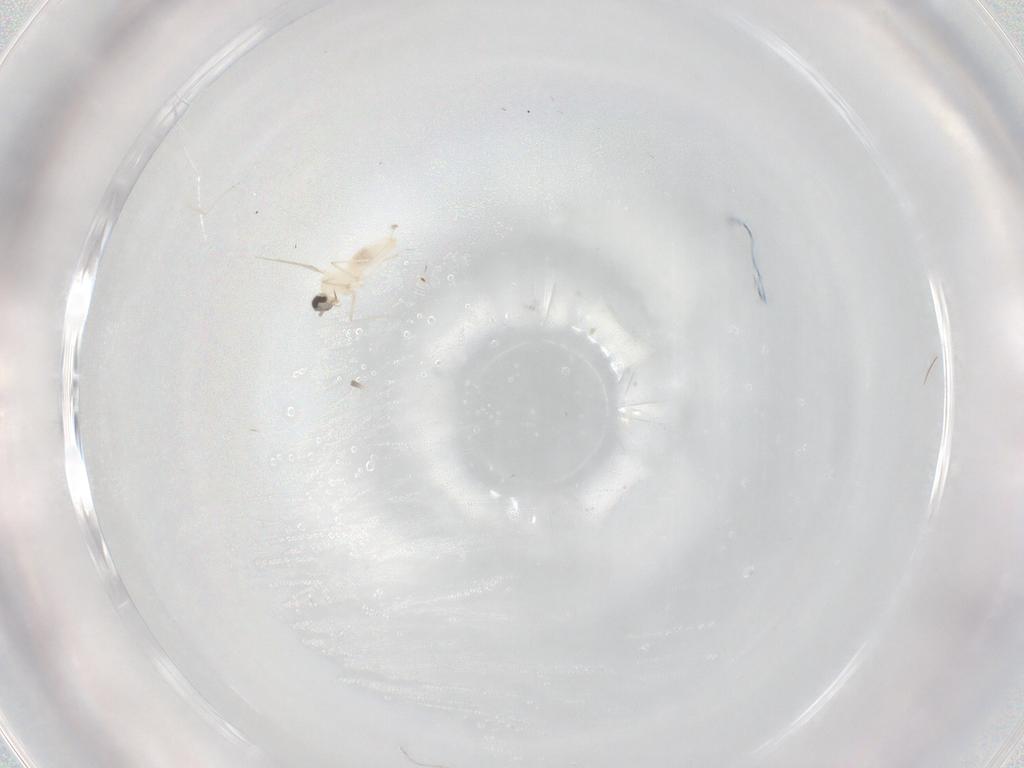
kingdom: Animalia
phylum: Arthropoda
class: Insecta
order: Diptera
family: Cecidomyiidae
